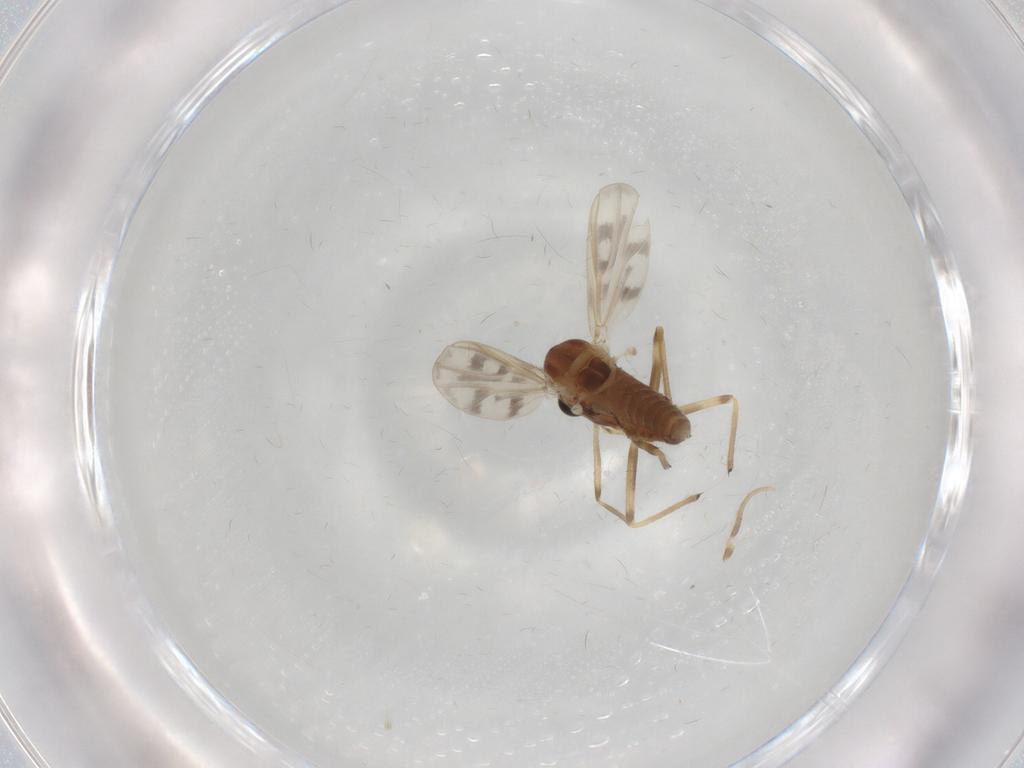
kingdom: Animalia
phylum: Arthropoda
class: Insecta
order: Diptera
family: Chironomidae
